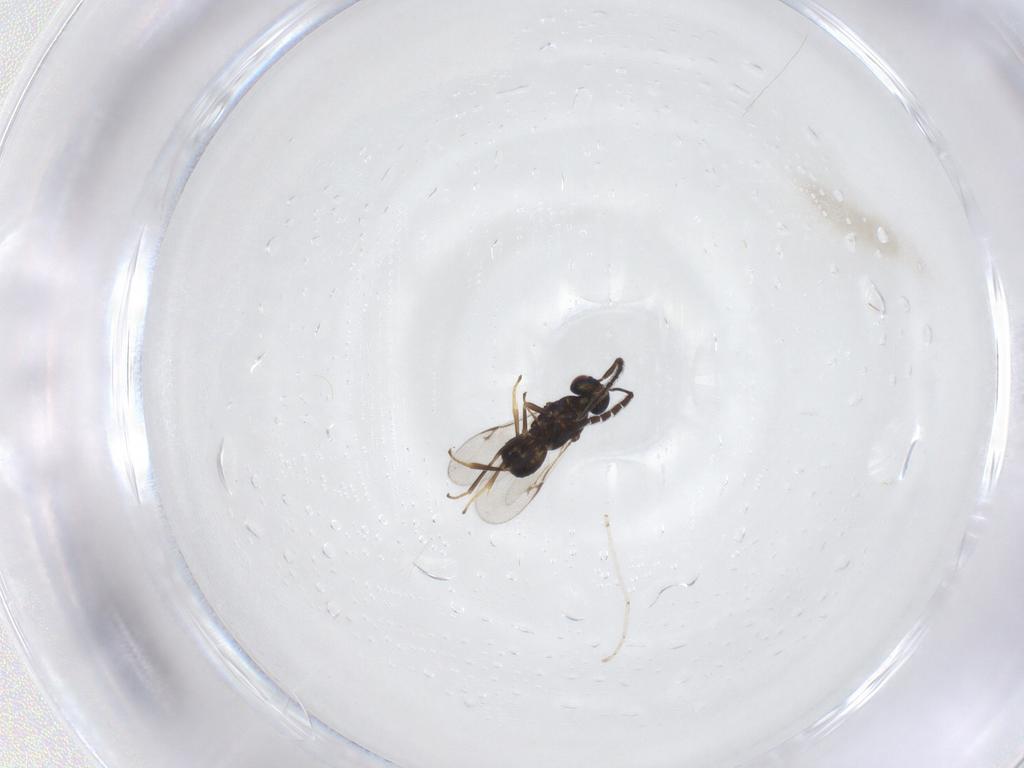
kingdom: Animalia
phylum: Arthropoda
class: Insecta
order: Hymenoptera
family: Encyrtidae
